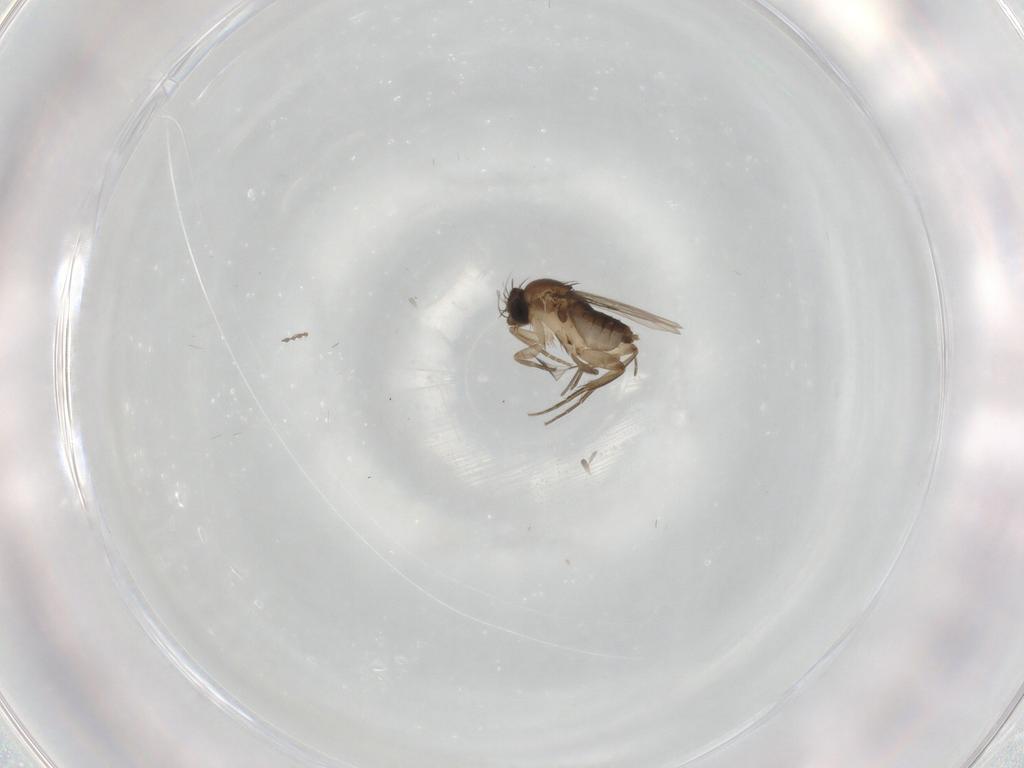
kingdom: Animalia
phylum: Arthropoda
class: Insecta
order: Diptera
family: Phoridae
